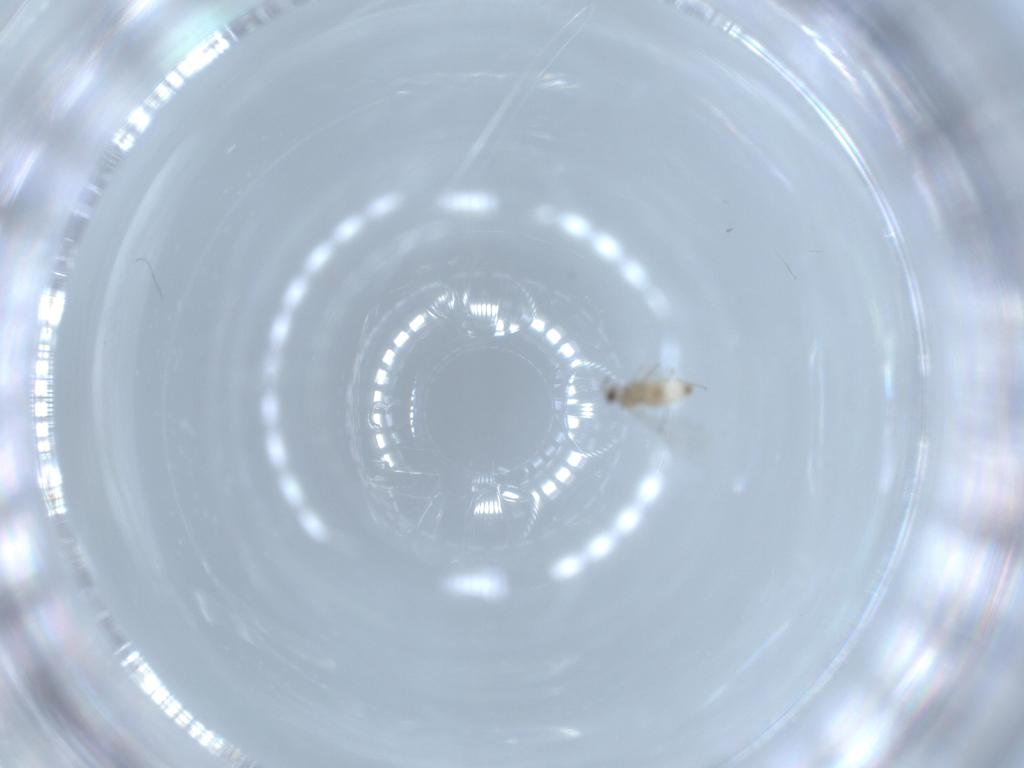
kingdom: Animalia
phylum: Arthropoda
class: Insecta
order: Diptera
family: Cecidomyiidae
